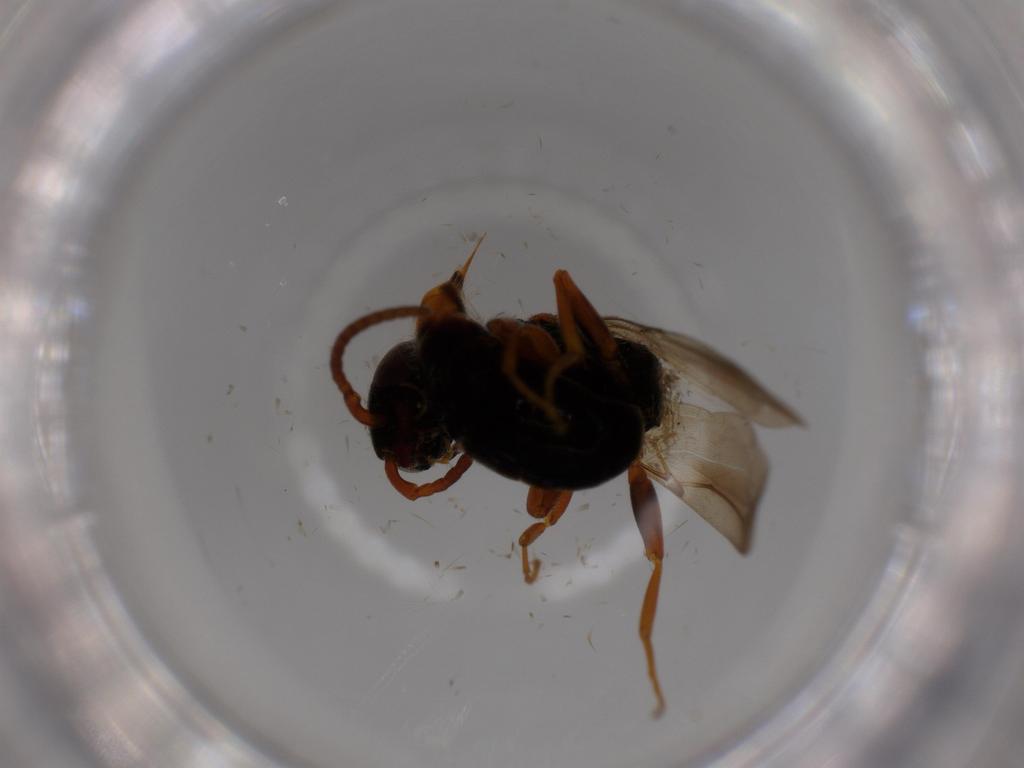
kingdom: Animalia
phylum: Arthropoda
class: Insecta
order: Hymenoptera
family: Bethylidae
